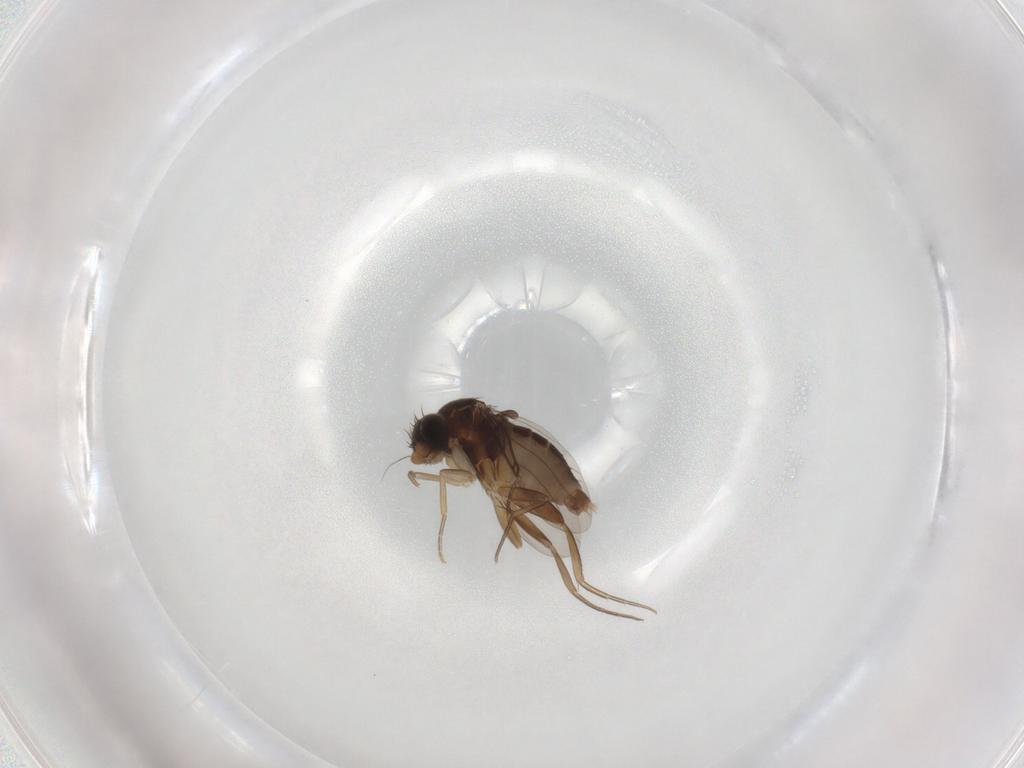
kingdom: Animalia
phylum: Arthropoda
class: Insecta
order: Diptera
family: Phoridae
